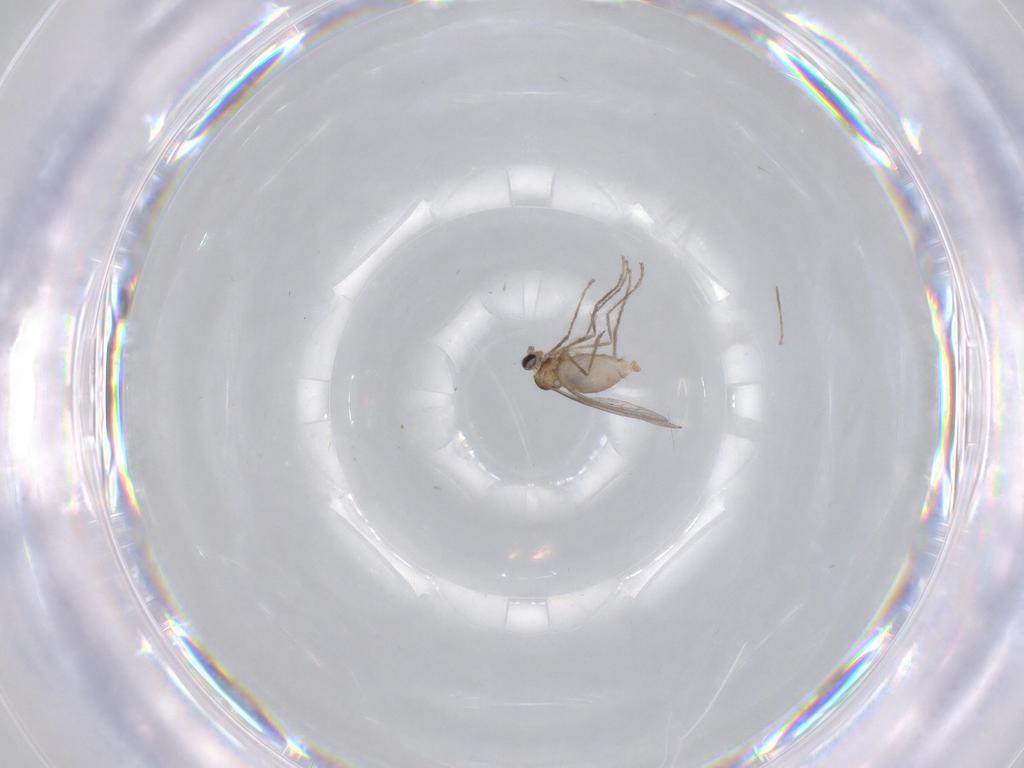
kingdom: Animalia
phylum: Arthropoda
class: Insecta
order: Diptera
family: Cecidomyiidae
